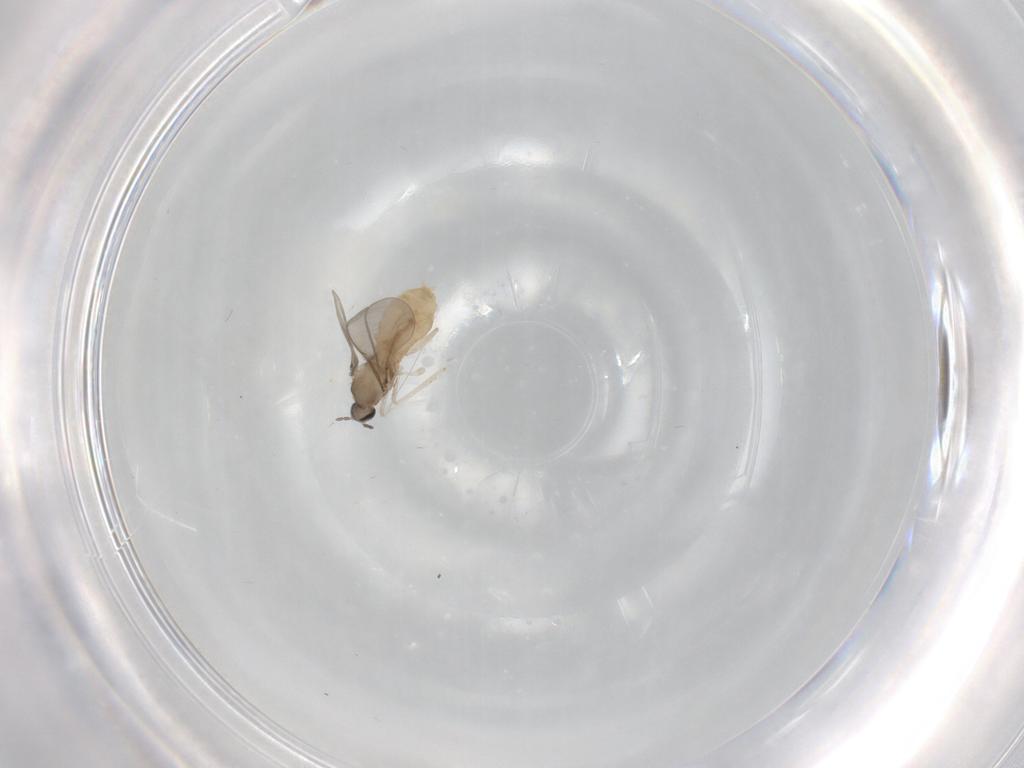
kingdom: Animalia
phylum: Arthropoda
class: Insecta
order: Diptera
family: Cecidomyiidae
